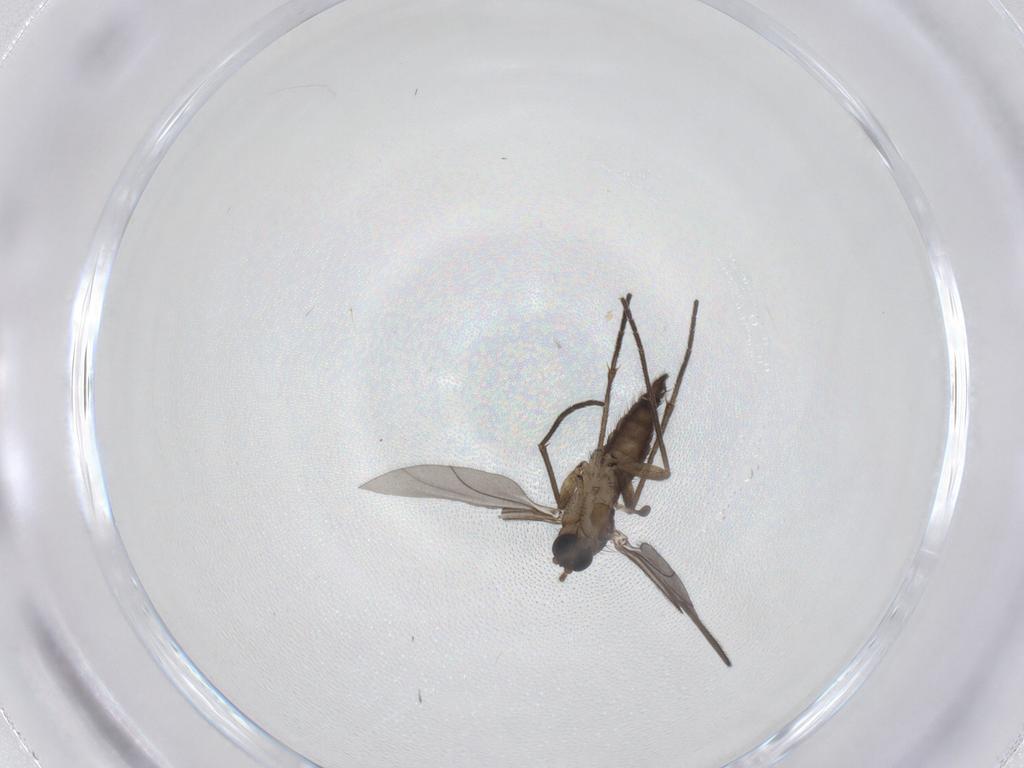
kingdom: Animalia
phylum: Arthropoda
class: Insecta
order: Diptera
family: Sciaridae
